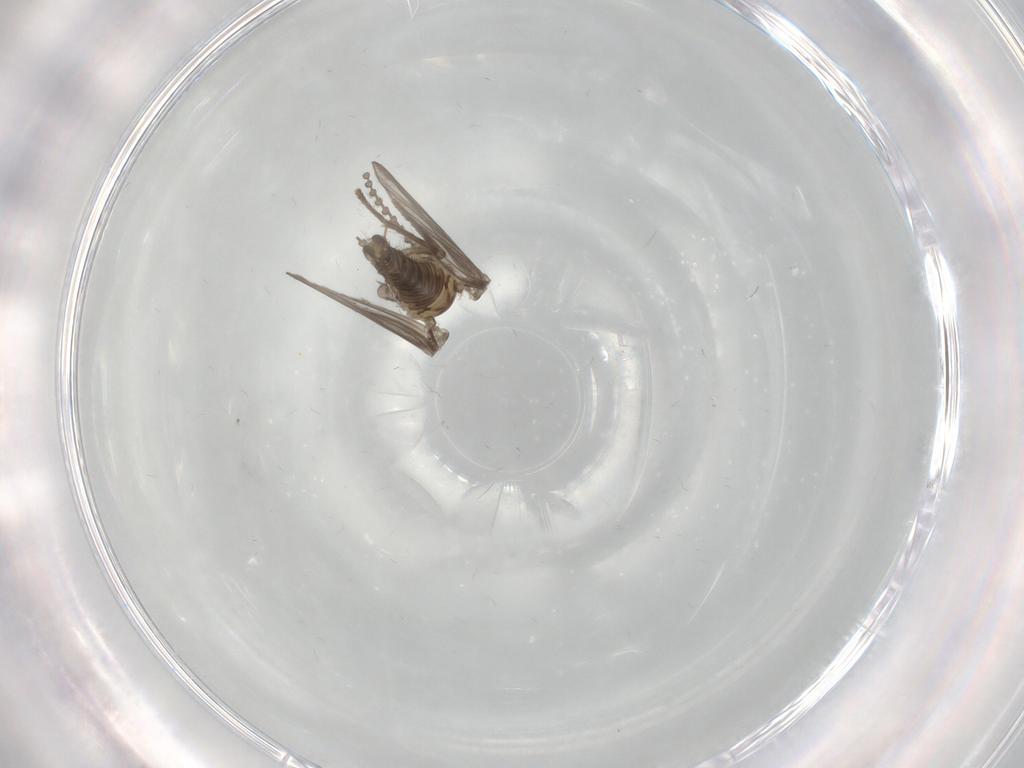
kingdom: Animalia
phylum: Arthropoda
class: Insecta
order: Diptera
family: Psychodidae
